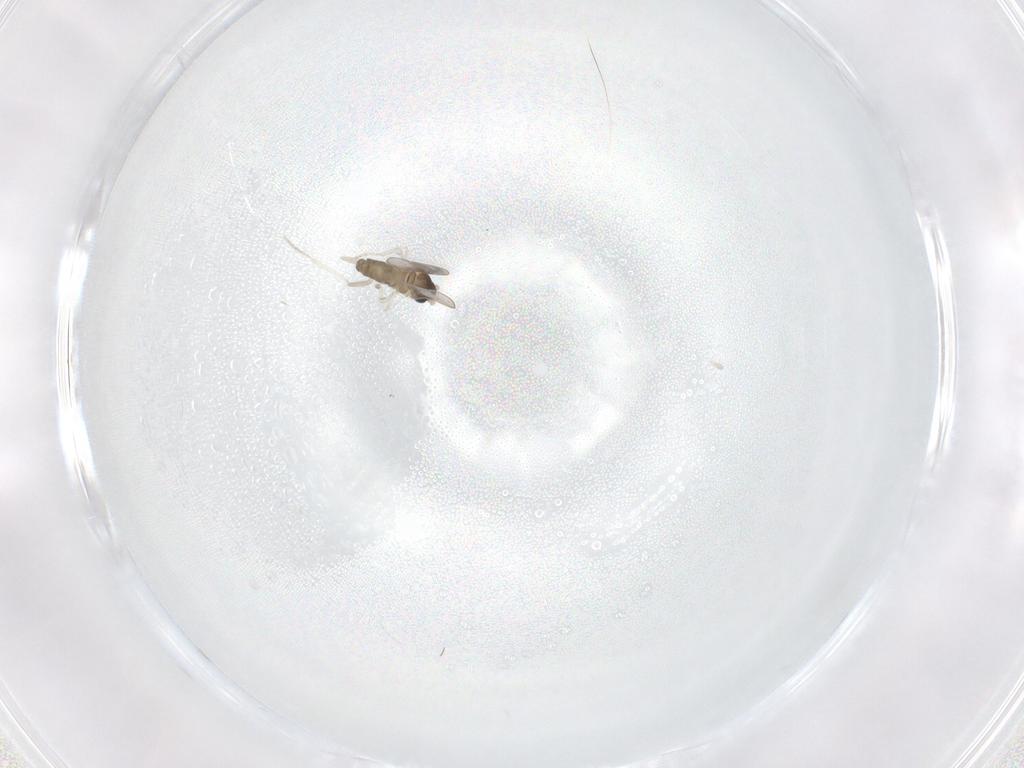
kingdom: Animalia
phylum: Arthropoda
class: Insecta
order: Diptera
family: Cecidomyiidae
